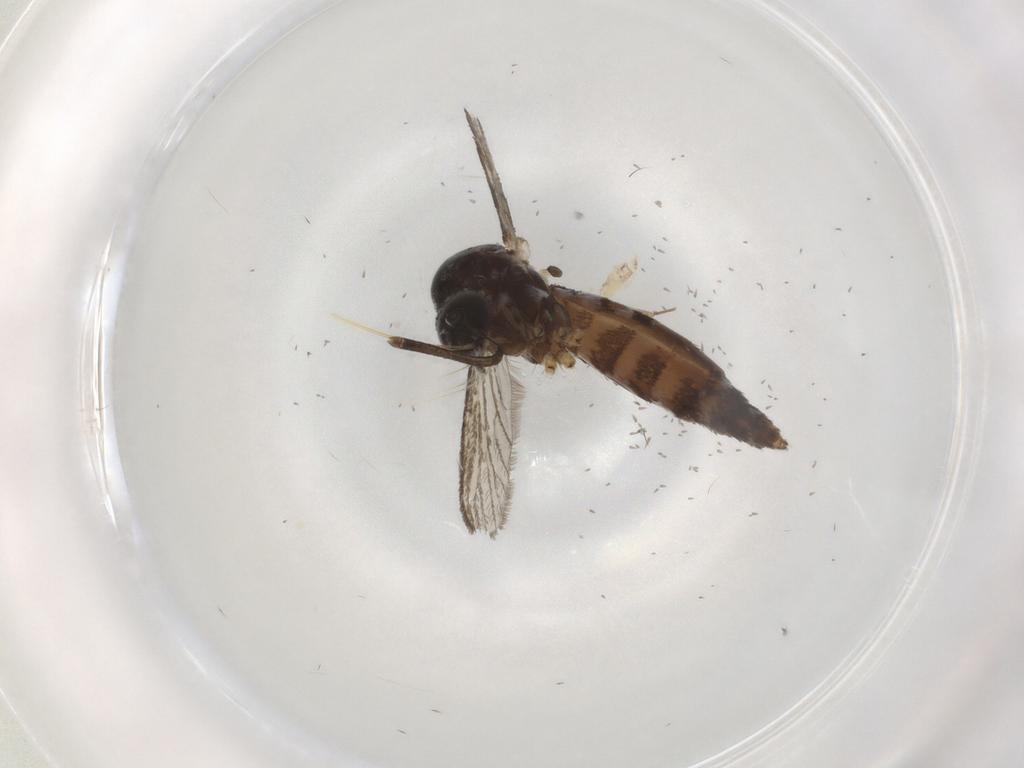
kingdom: Animalia
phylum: Arthropoda
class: Insecta
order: Diptera
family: Culicidae
